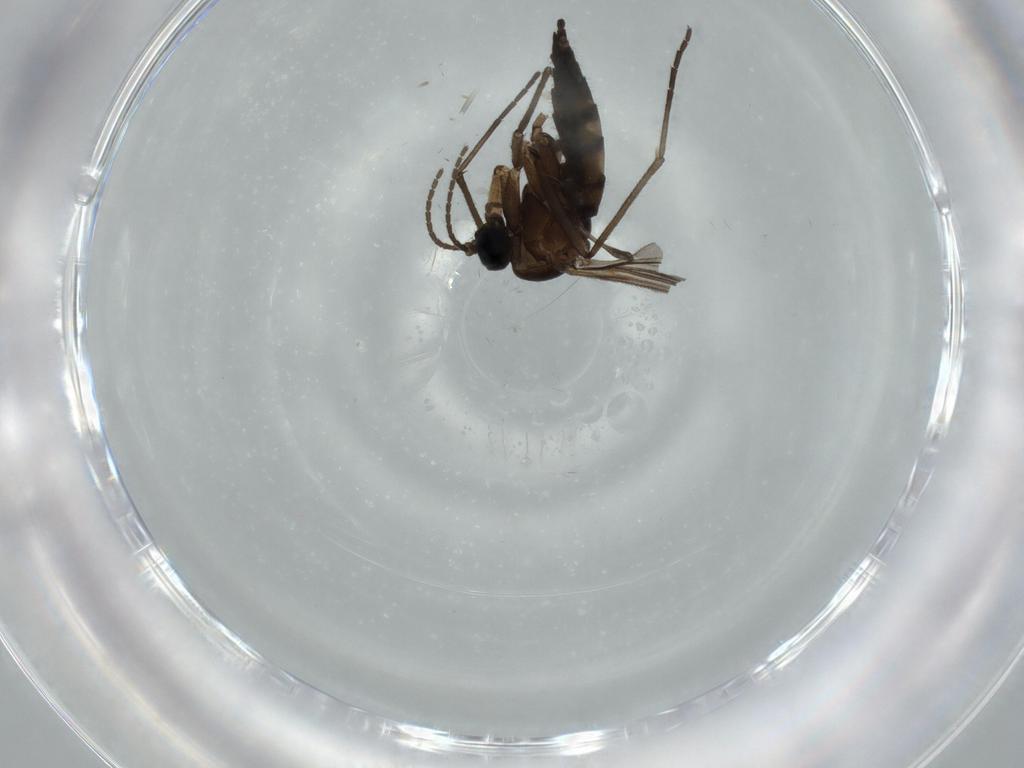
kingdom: Animalia
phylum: Arthropoda
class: Insecta
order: Diptera
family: Sciaridae
